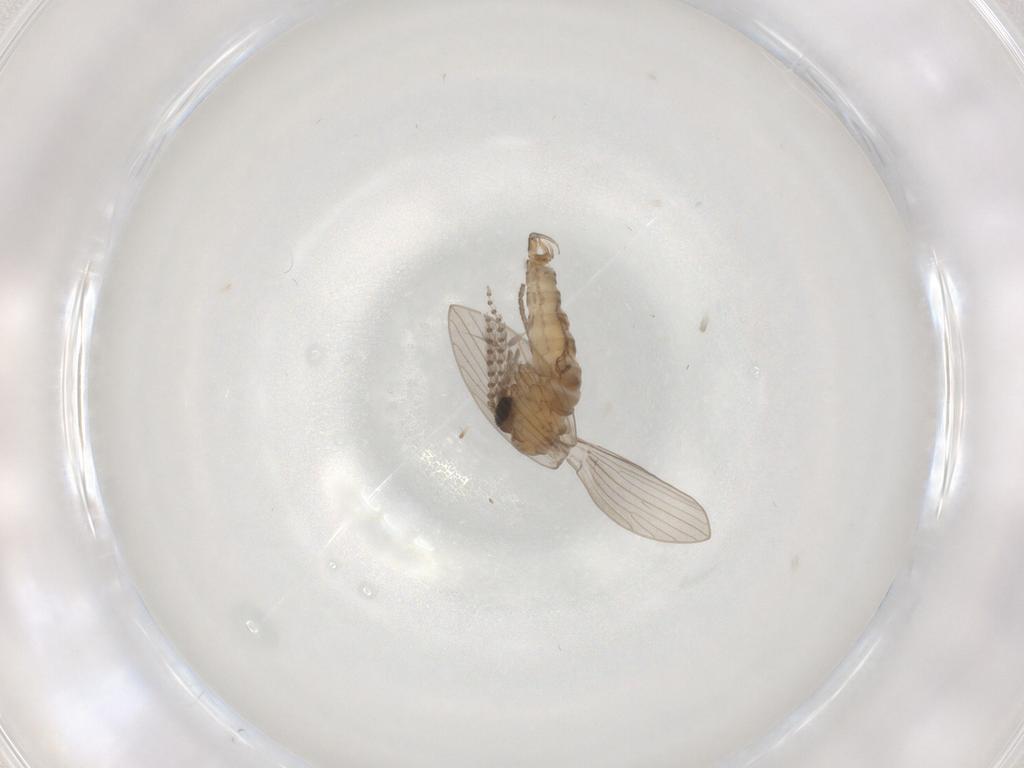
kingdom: Animalia
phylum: Arthropoda
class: Insecta
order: Diptera
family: Psychodidae
